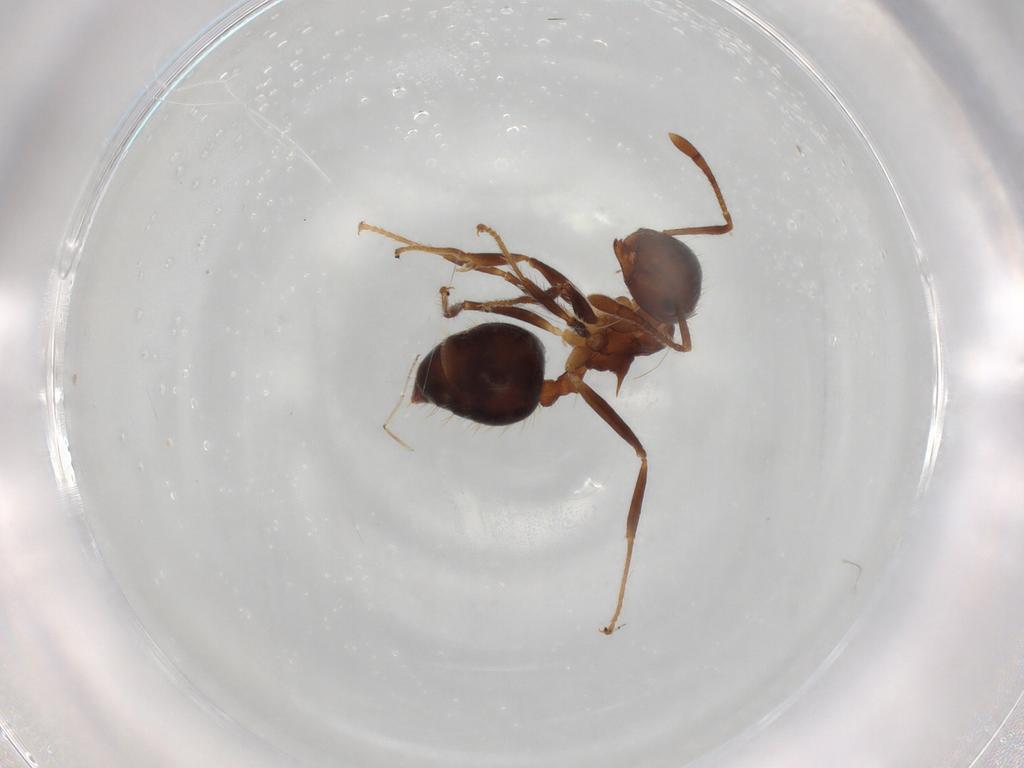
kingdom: Animalia
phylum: Arthropoda
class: Insecta
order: Hymenoptera
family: Formicidae
